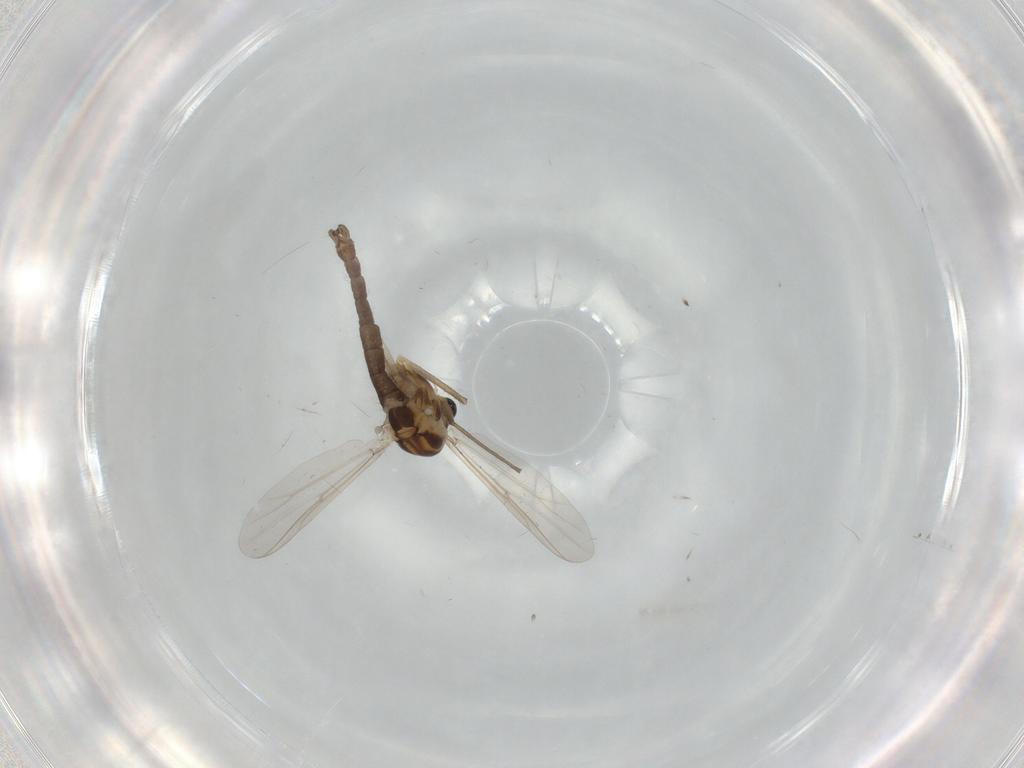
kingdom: Animalia
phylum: Arthropoda
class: Insecta
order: Diptera
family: Chironomidae
